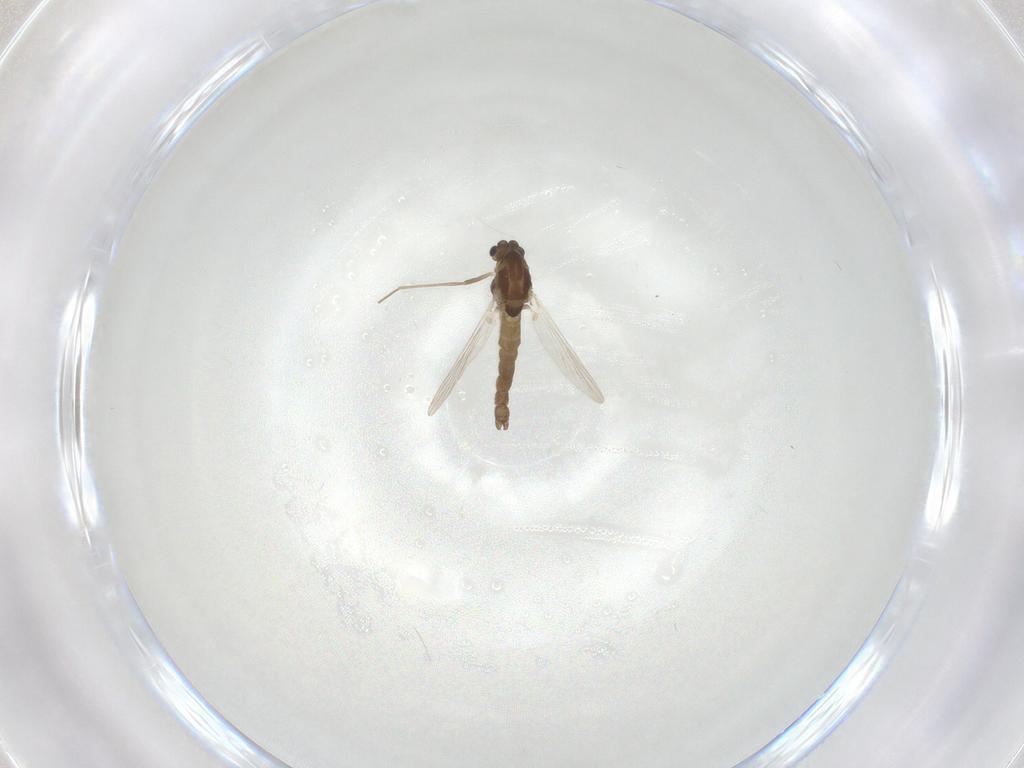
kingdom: Animalia
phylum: Arthropoda
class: Insecta
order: Diptera
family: Chironomidae
